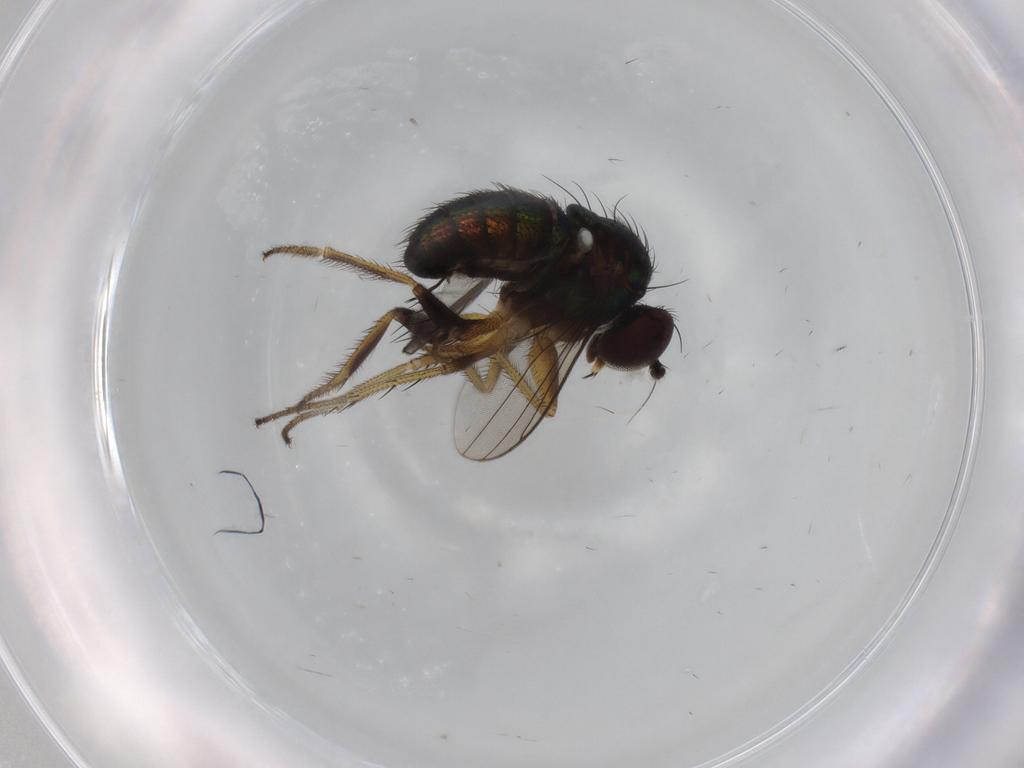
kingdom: Animalia
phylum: Arthropoda
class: Insecta
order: Diptera
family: Dolichopodidae
